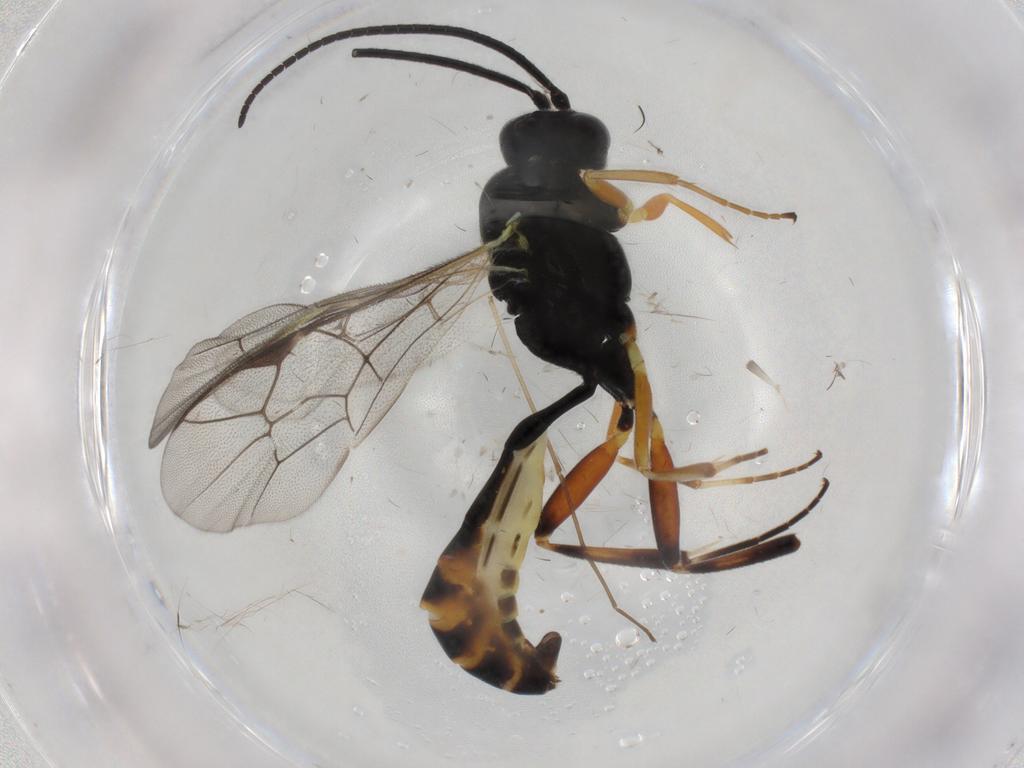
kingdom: Animalia
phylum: Arthropoda
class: Insecta
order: Hymenoptera
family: Ichneumonidae
